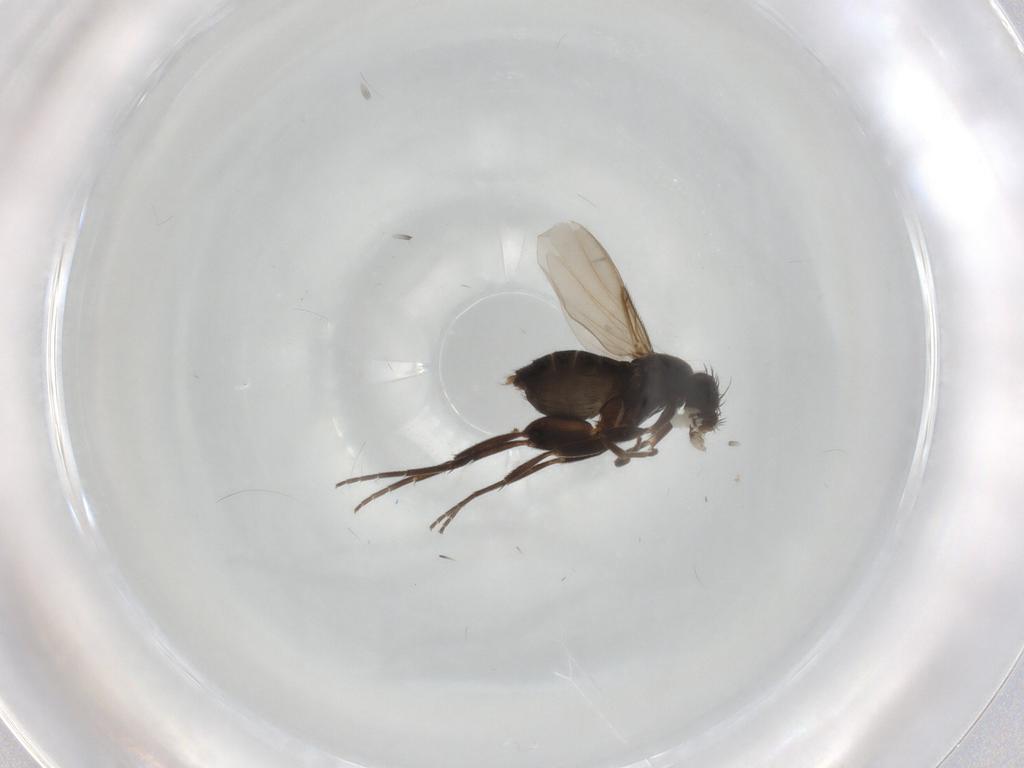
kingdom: Animalia
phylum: Arthropoda
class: Insecta
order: Diptera
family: Chironomidae
